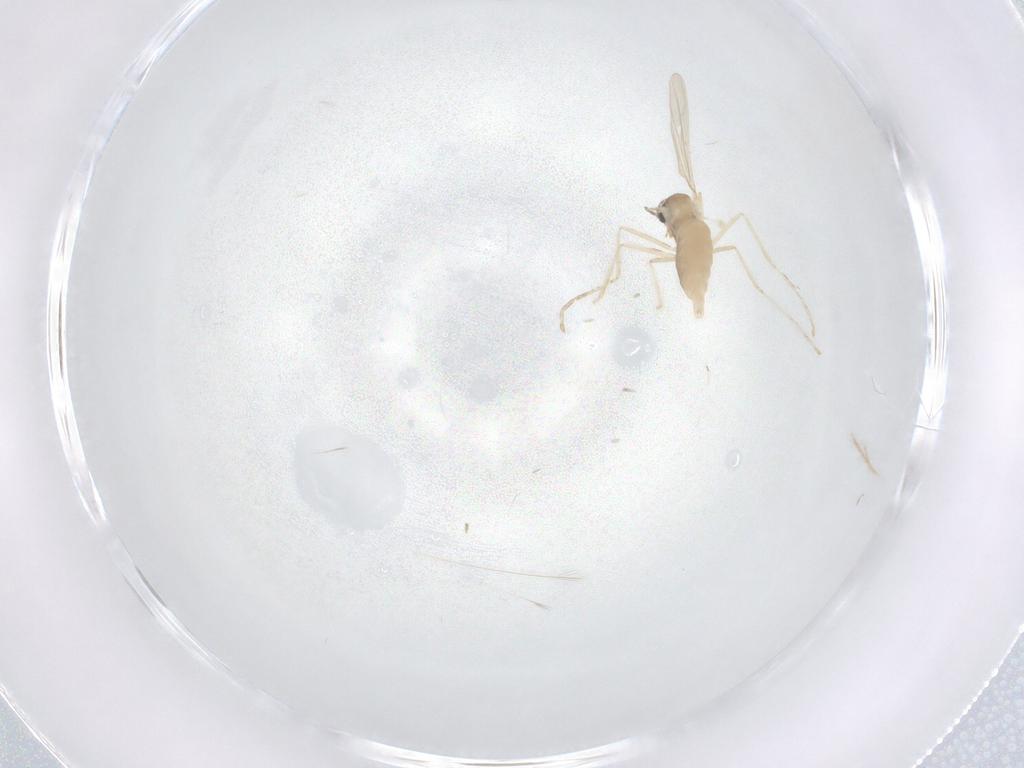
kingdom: Animalia
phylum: Arthropoda
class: Insecta
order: Diptera
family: Cecidomyiidae
